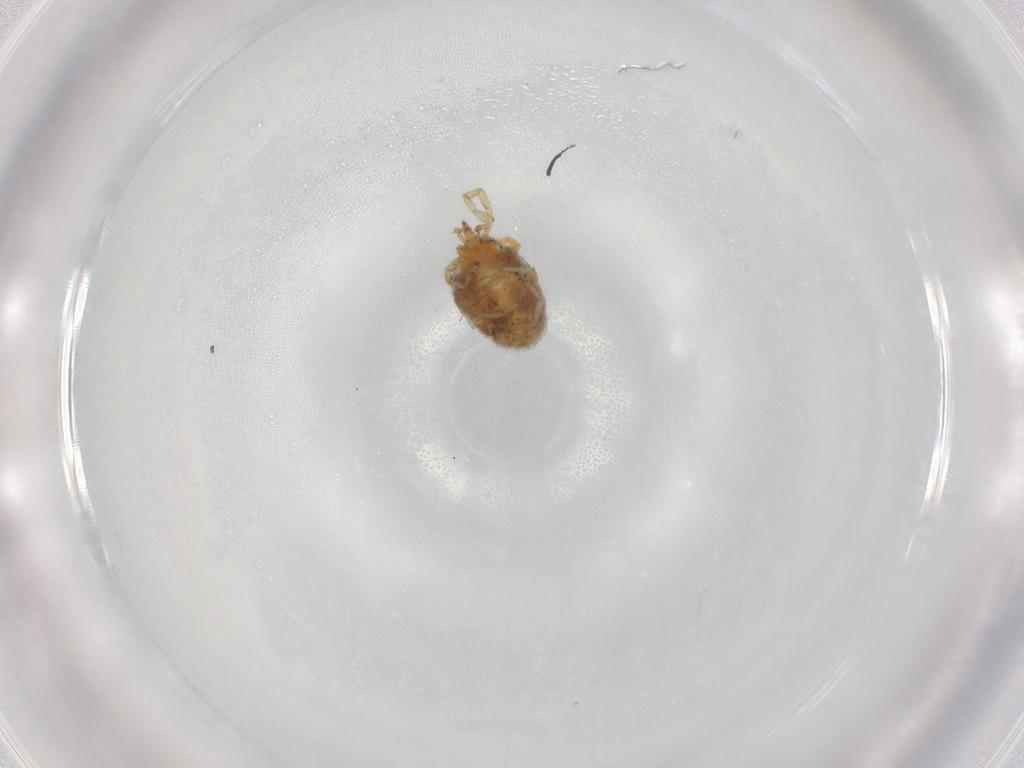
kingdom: Animalia
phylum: Arthropoda
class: Arachnida
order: Trombidiformes
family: Erythraeidae
